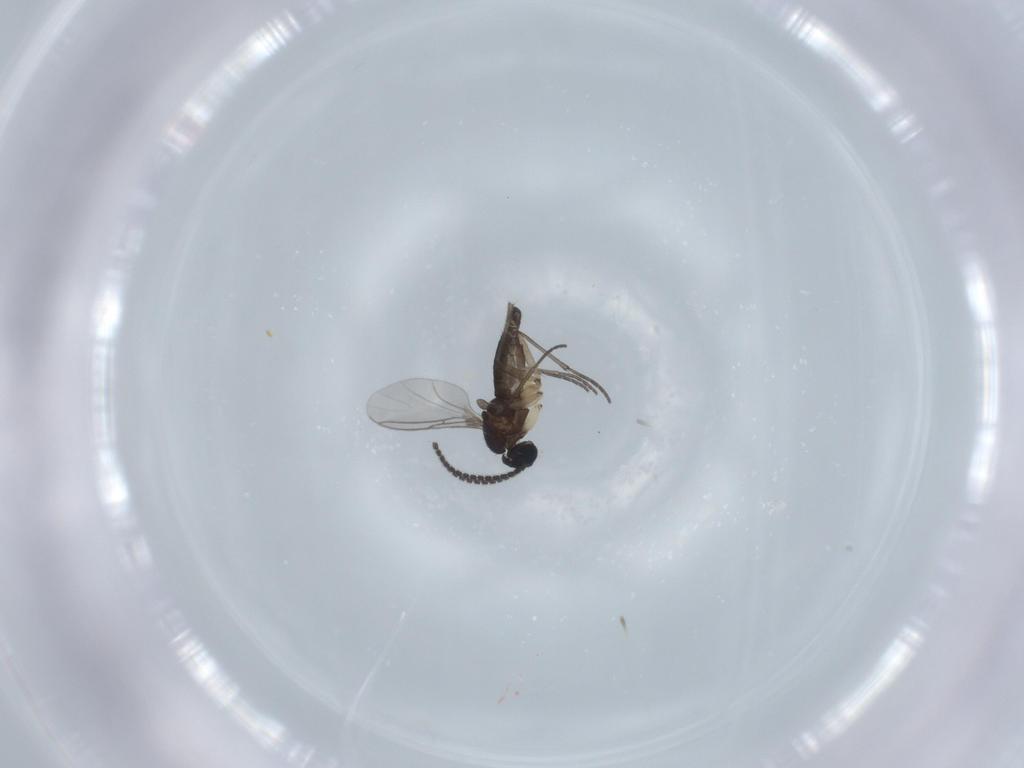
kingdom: Animalia
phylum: Arthropoda
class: Insecta
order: Diptera
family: Sciaridae
